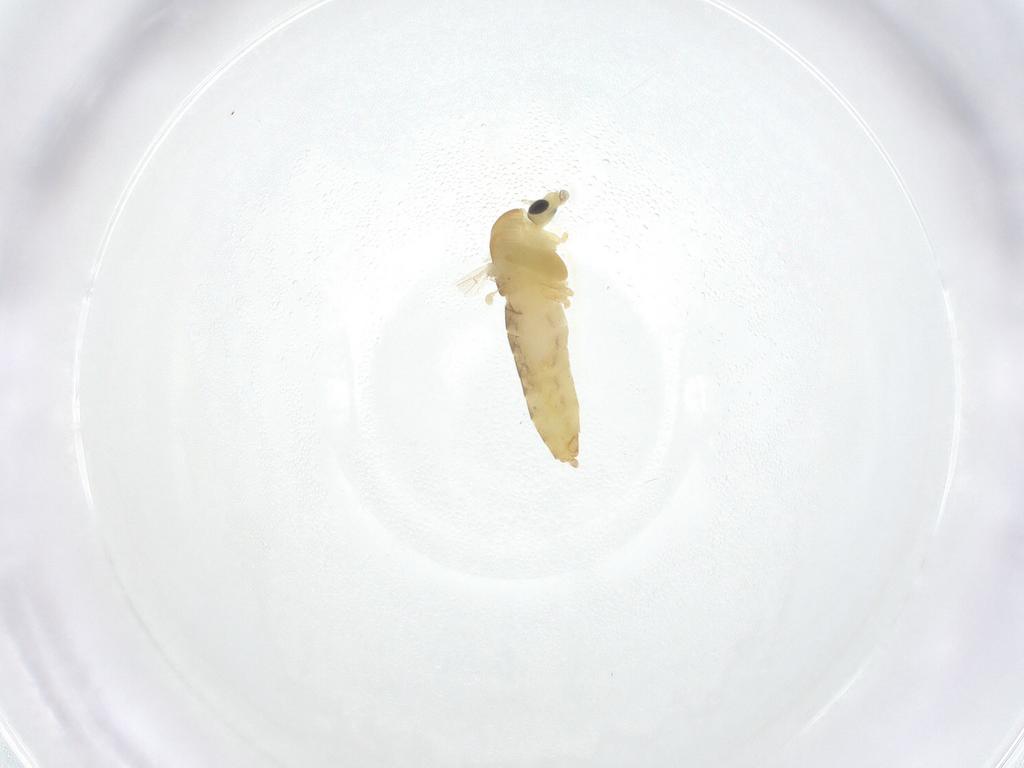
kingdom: Animalia
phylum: Arthropoda
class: Insecta
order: Diptera
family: Chironomidae
